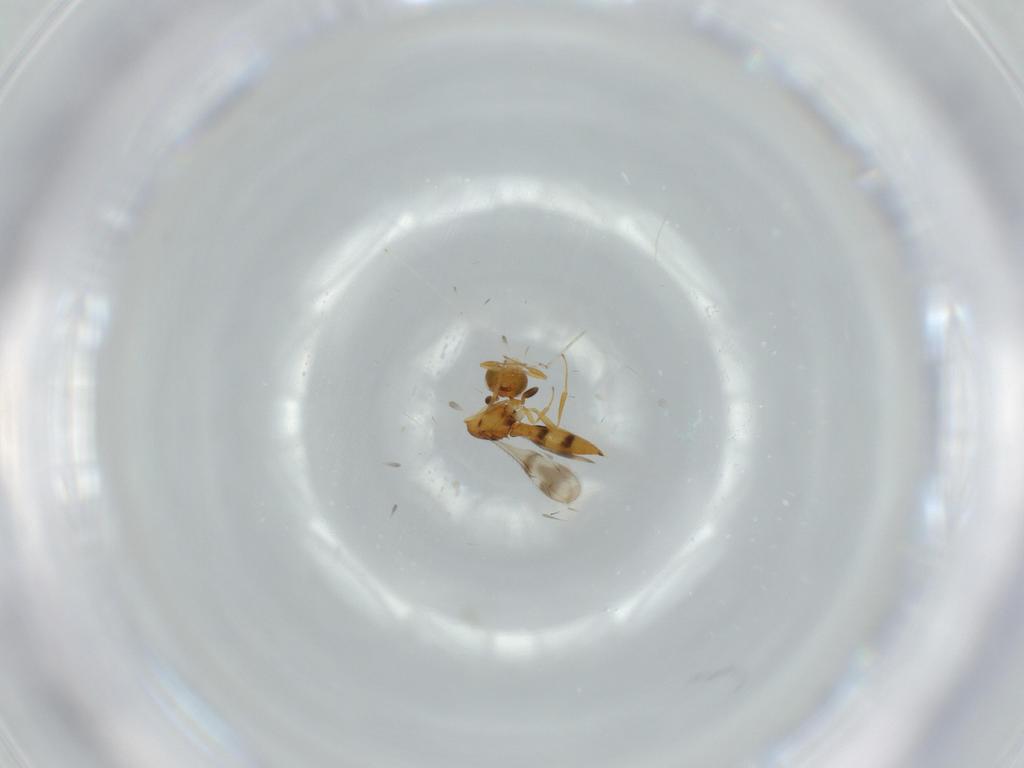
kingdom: Animalia
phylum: Arthropoda
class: Insecta
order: Hymenoptera
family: Scelionidae
